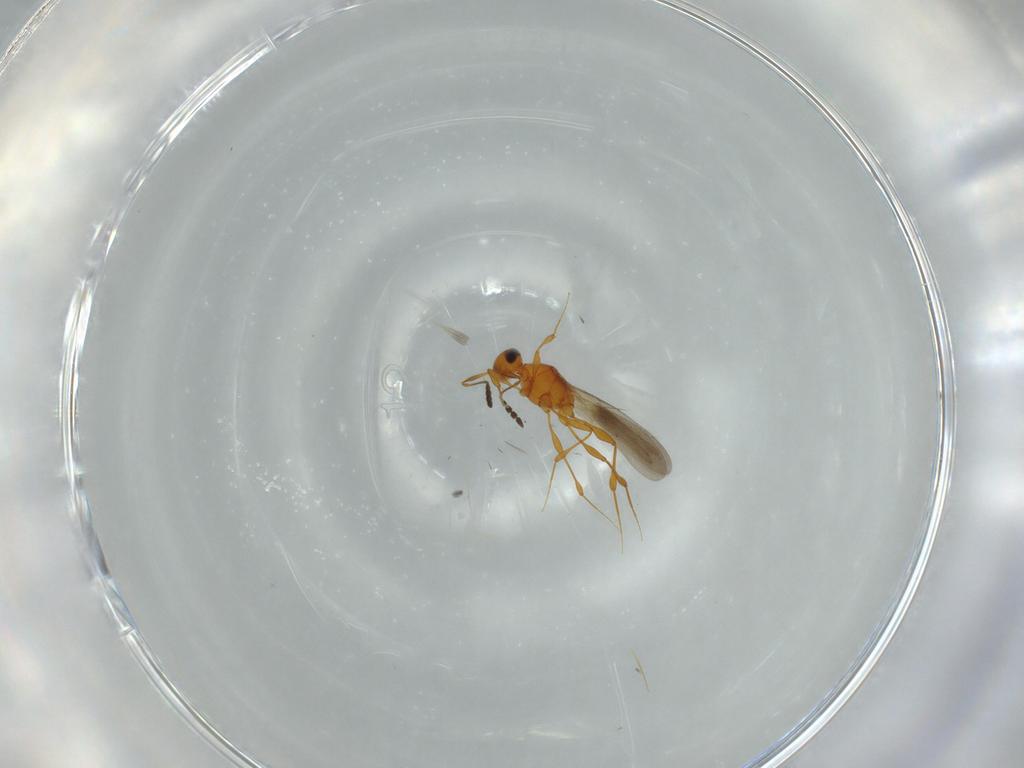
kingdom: Animalia
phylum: Arthropoda
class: Insecta
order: Hymenoptera
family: Platygastridae
